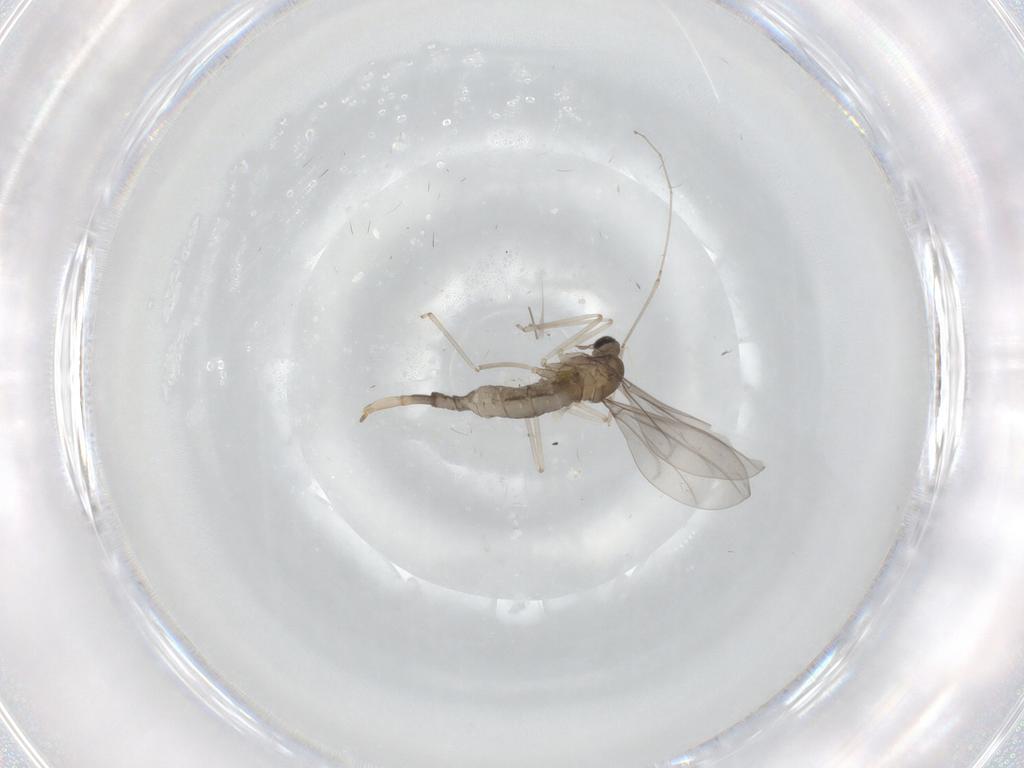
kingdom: Animalia
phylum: Arthropoda
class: Insecta
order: Diptera
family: Cecidomyiidae
